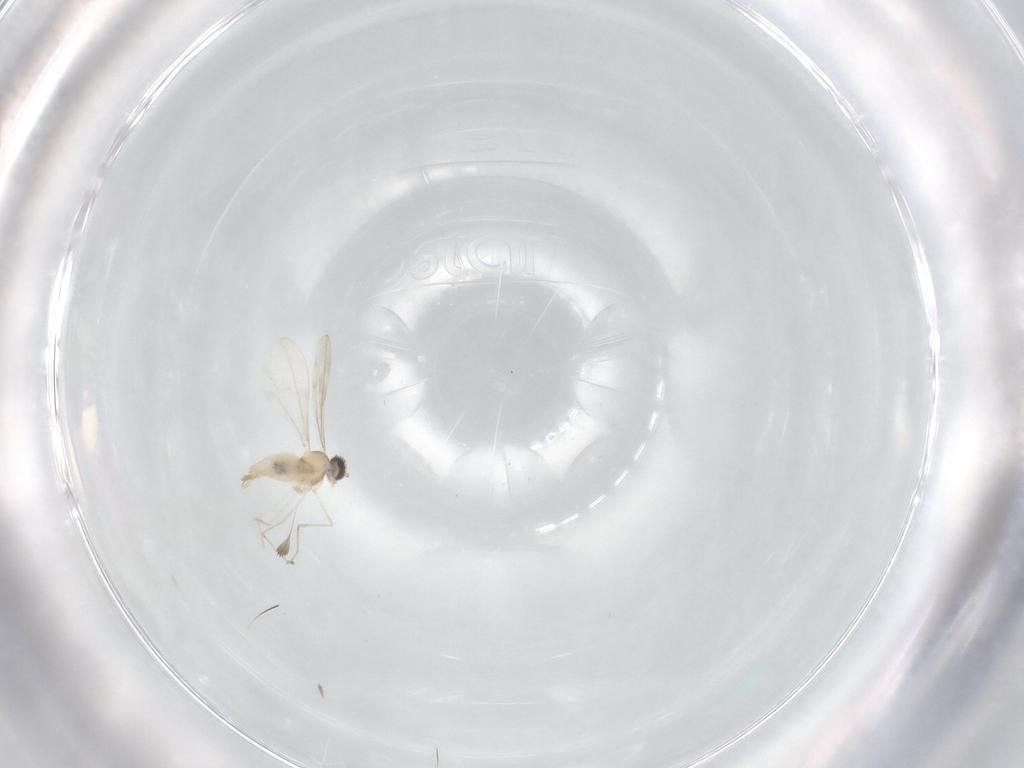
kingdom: Animalia
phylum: Arthropoda
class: Insecta
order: Diptera
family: Cecidomyiidae
